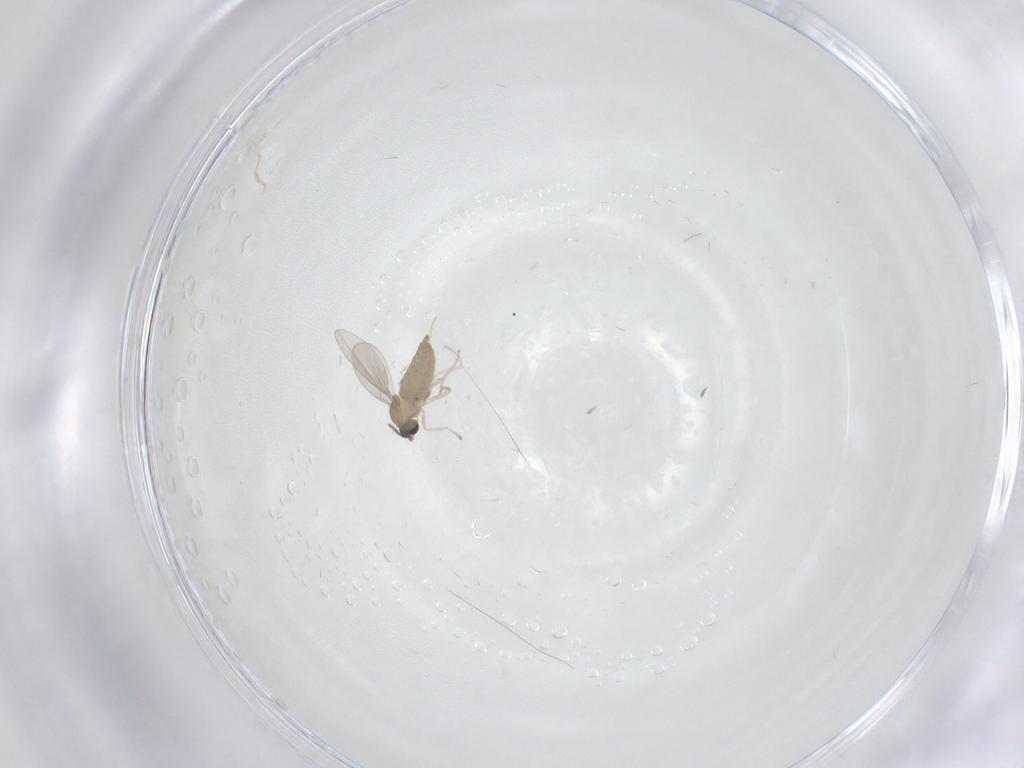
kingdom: Animalia
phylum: Arthropoda
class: Insecta
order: Diptera
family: Cecidomyiidae
